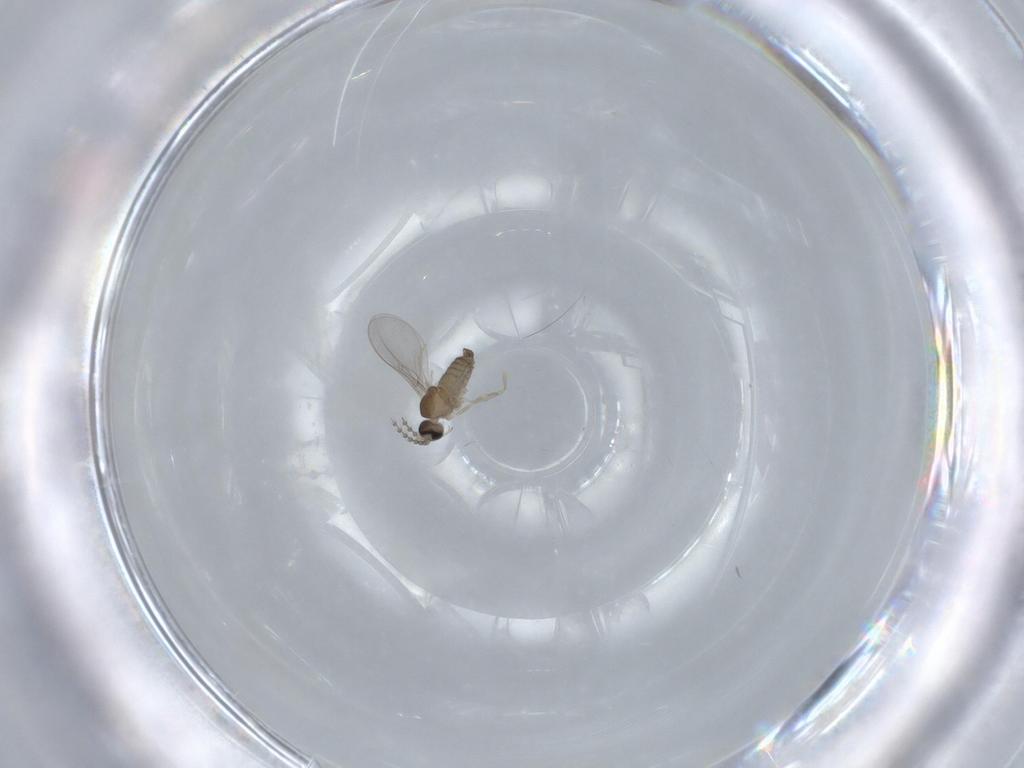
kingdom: Animalia
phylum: Arthropoda
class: Insecta
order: Diptera
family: Cecidomyiidae
